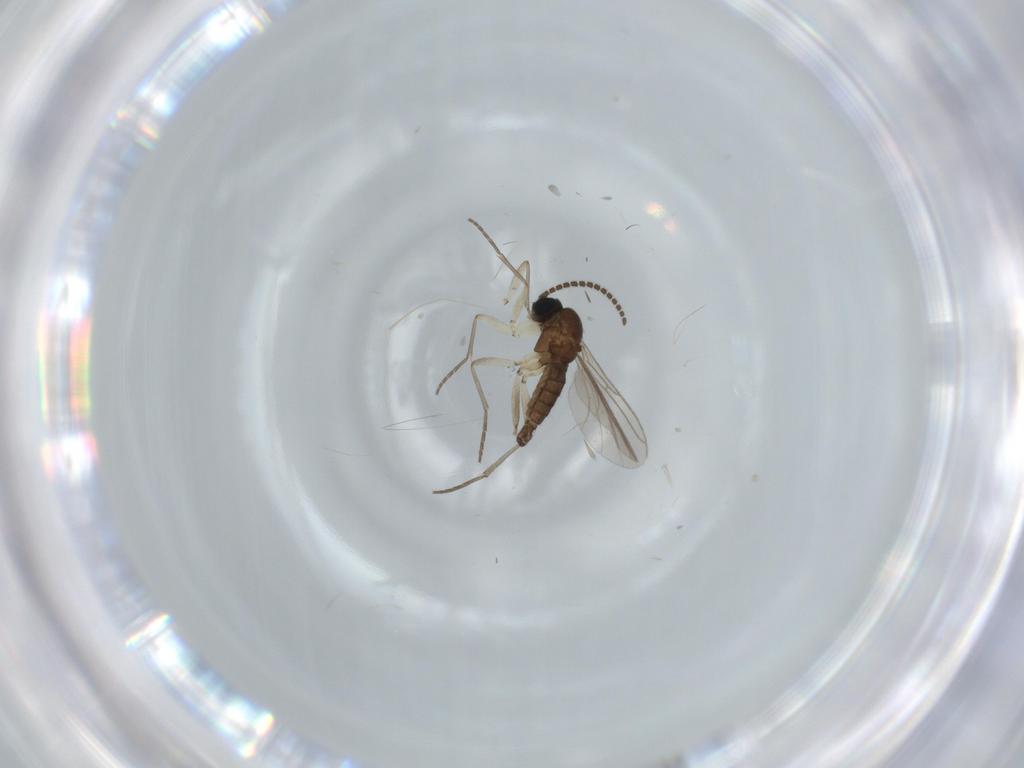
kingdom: Animalia
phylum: Arthropoda
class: Insecta
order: Diptera
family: Sciaridae
